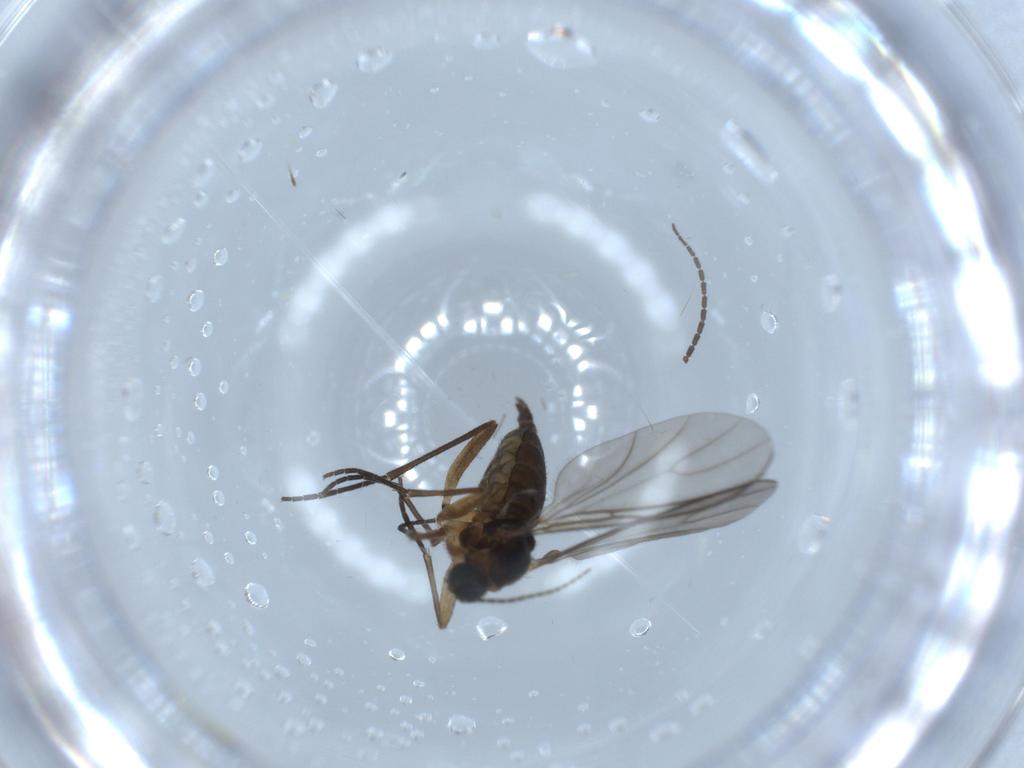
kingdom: Animalia
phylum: Arthropoda
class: Insecta
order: Diptera
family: Sciaridae
